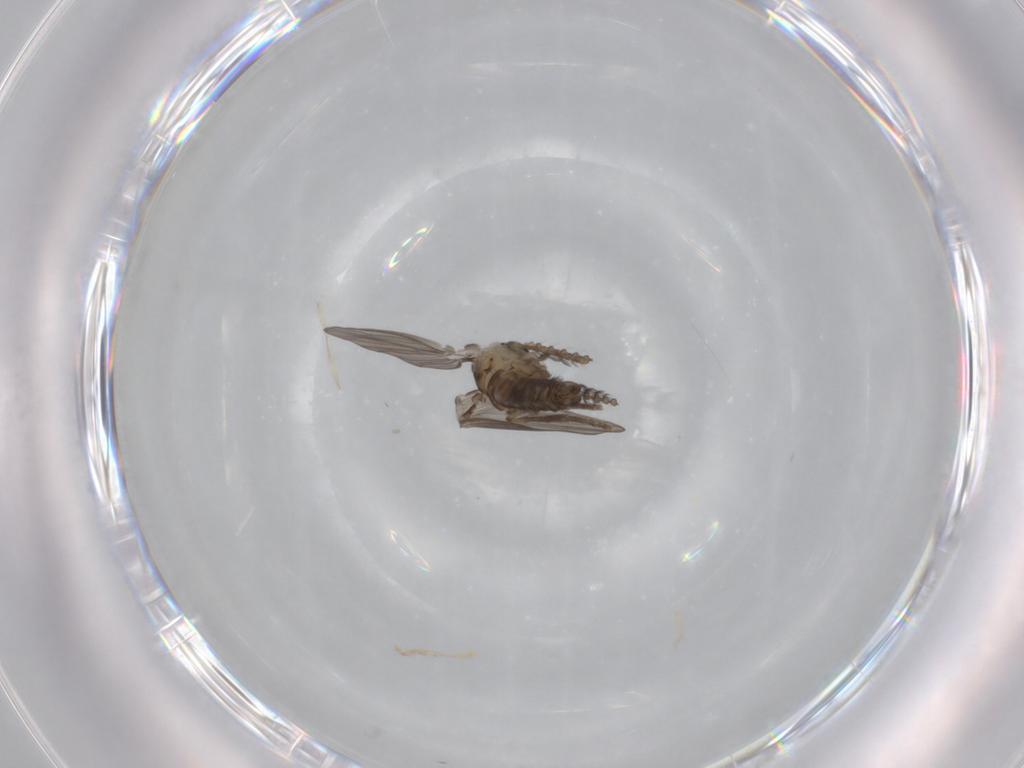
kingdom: Animalia
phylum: Arthropoda
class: Insecta
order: Diptera
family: Psychodidae
